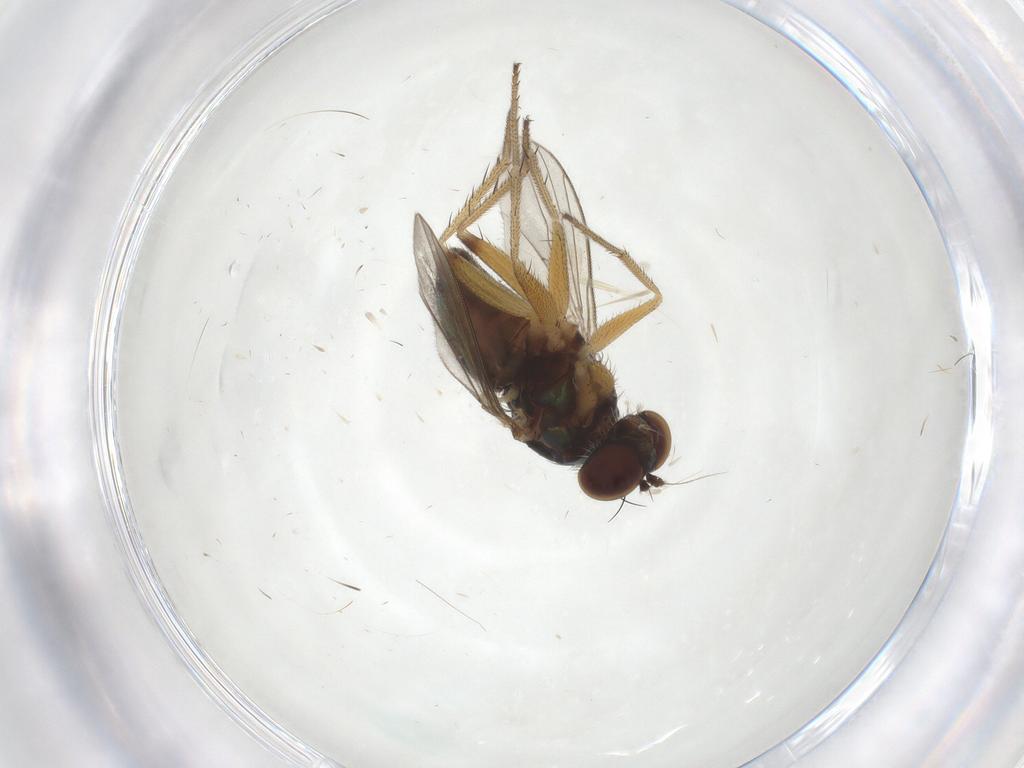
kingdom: Animalia
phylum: Arthropoda
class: Insecta
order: Diptera
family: Chironomidae
